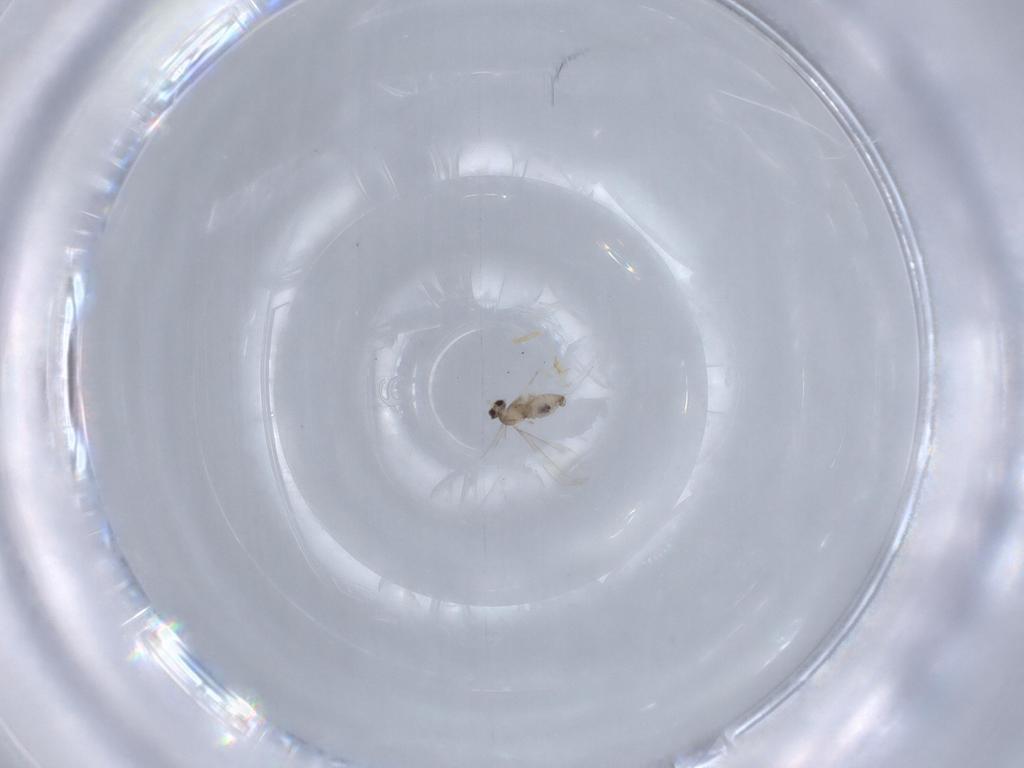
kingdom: Animalia
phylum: Arthropoda
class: Insecta
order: Diptera
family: Cecidomyiidae
